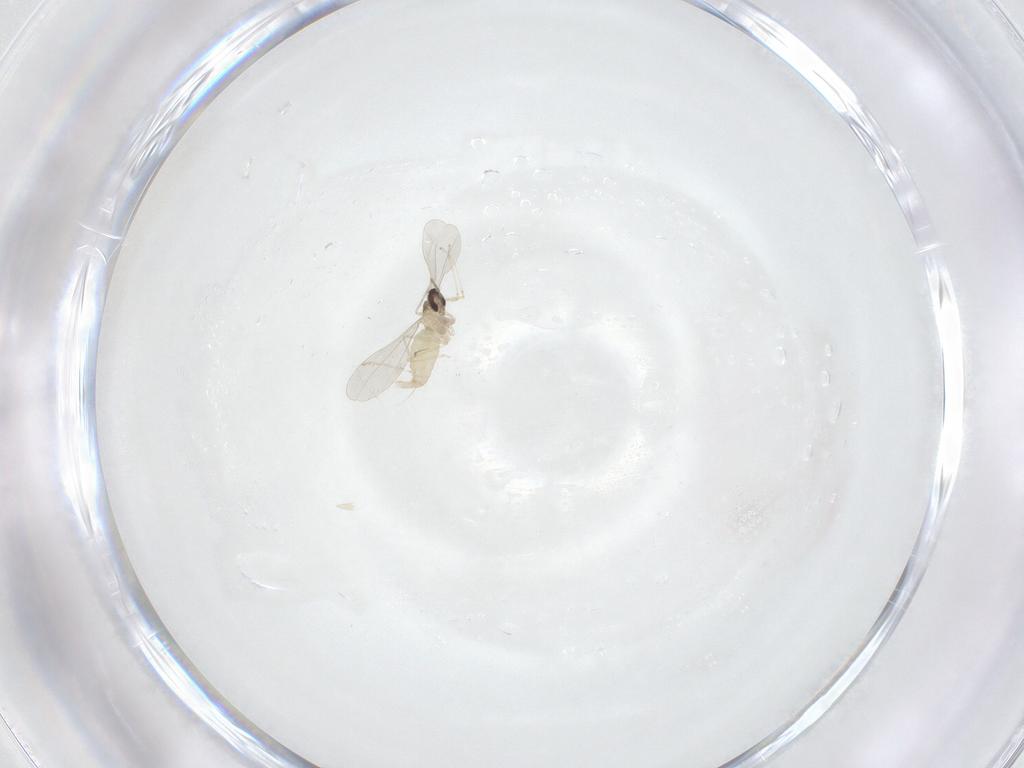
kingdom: Animalia
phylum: Arthropoda
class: Insecta
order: Diptera
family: Cecidomyiidae
